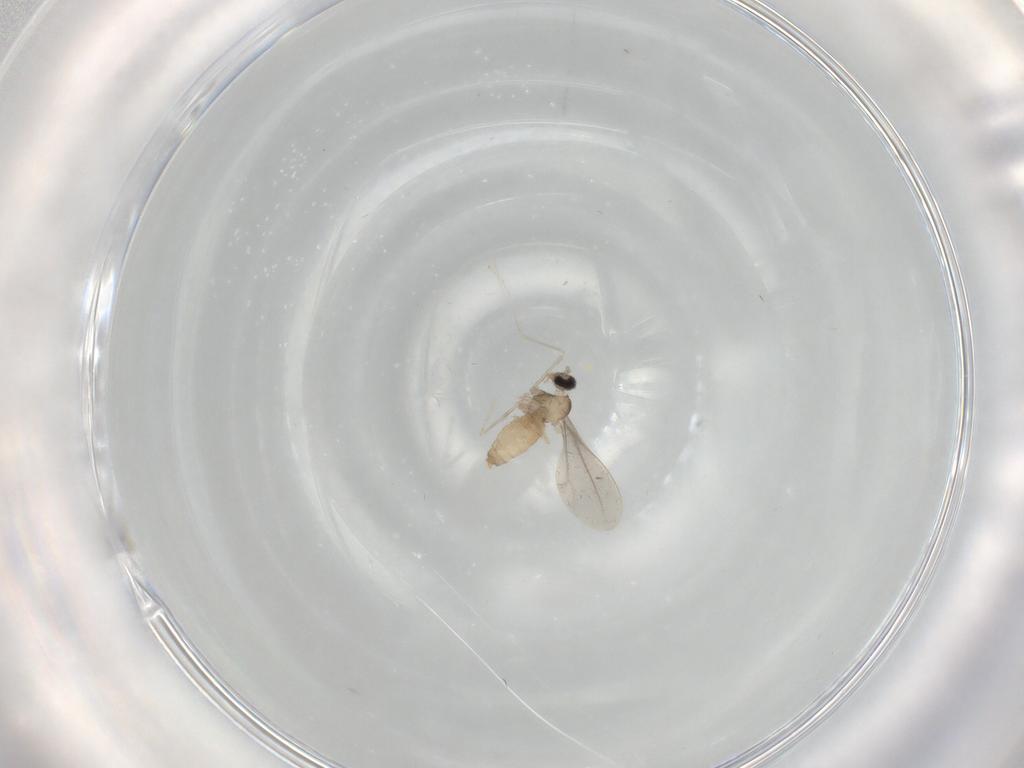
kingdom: Animalia
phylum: Arthropoda
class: Insecta
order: Diptera
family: Cecidomyiidae
